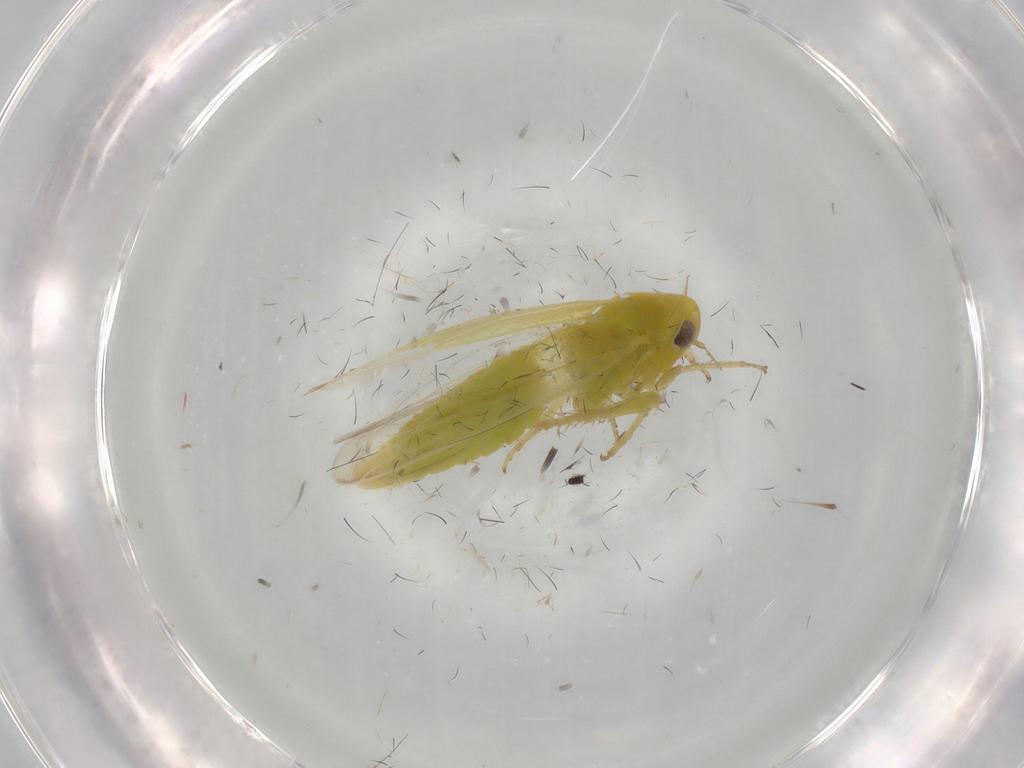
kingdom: Animalia
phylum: Arthropoda
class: Insecta
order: Hemiptera
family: Cicadellidae
